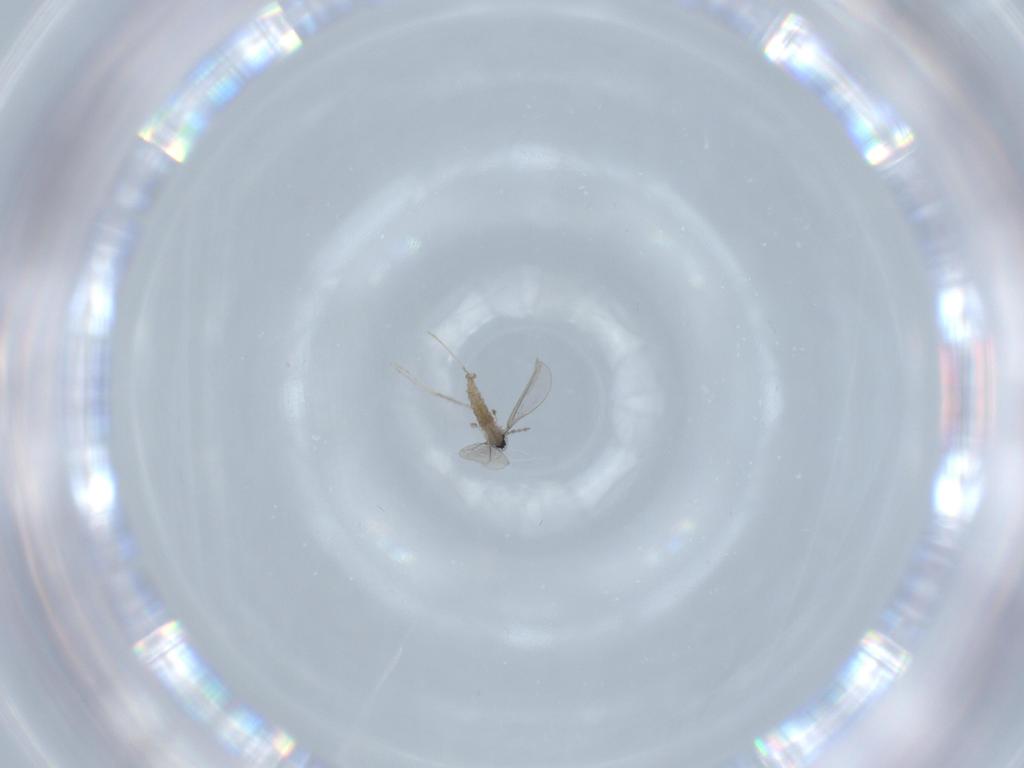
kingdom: Animalia
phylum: Arthropoda
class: Insecta
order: Diptera
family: Cecidomyiidae
